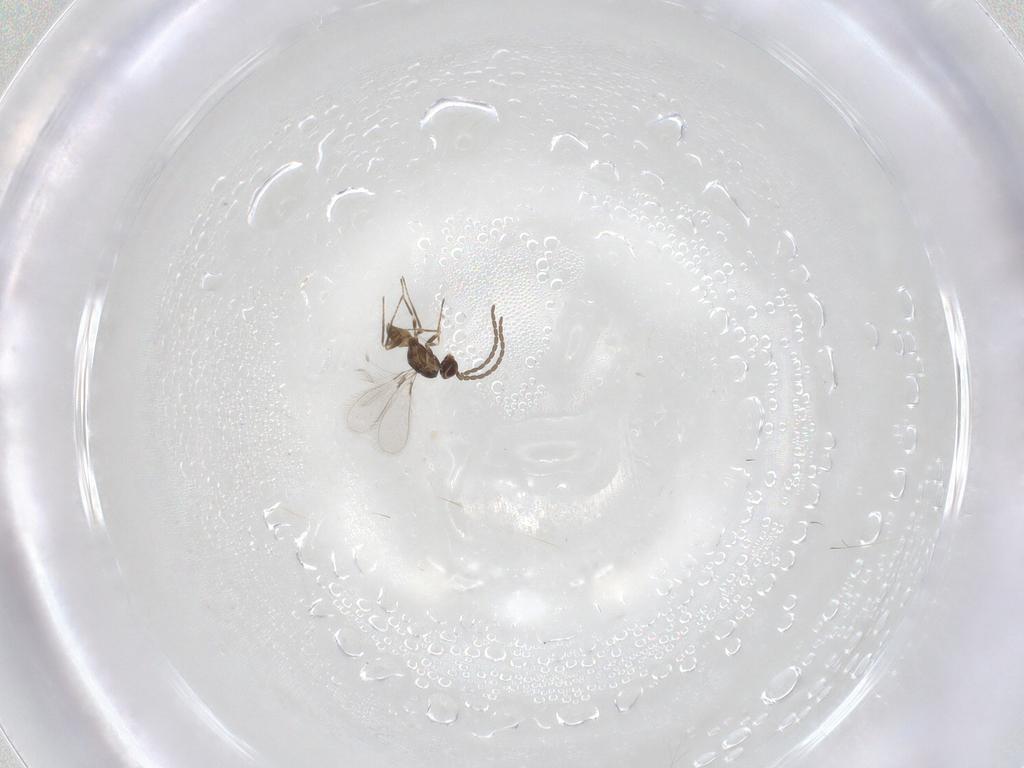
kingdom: Animalia
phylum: Arthropoda
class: Insecta
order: Hymenoptera
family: Mymaridae
